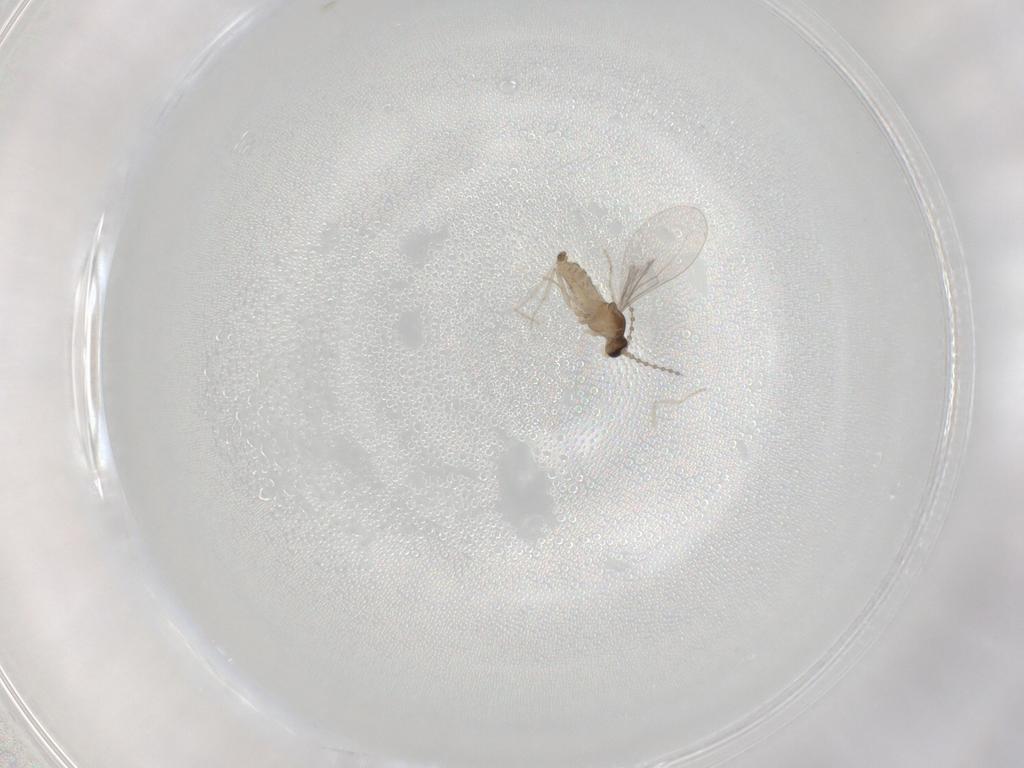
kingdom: Animalia
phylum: Arthropoda
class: Insecta
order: Diptera
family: Cecidomyiidae
